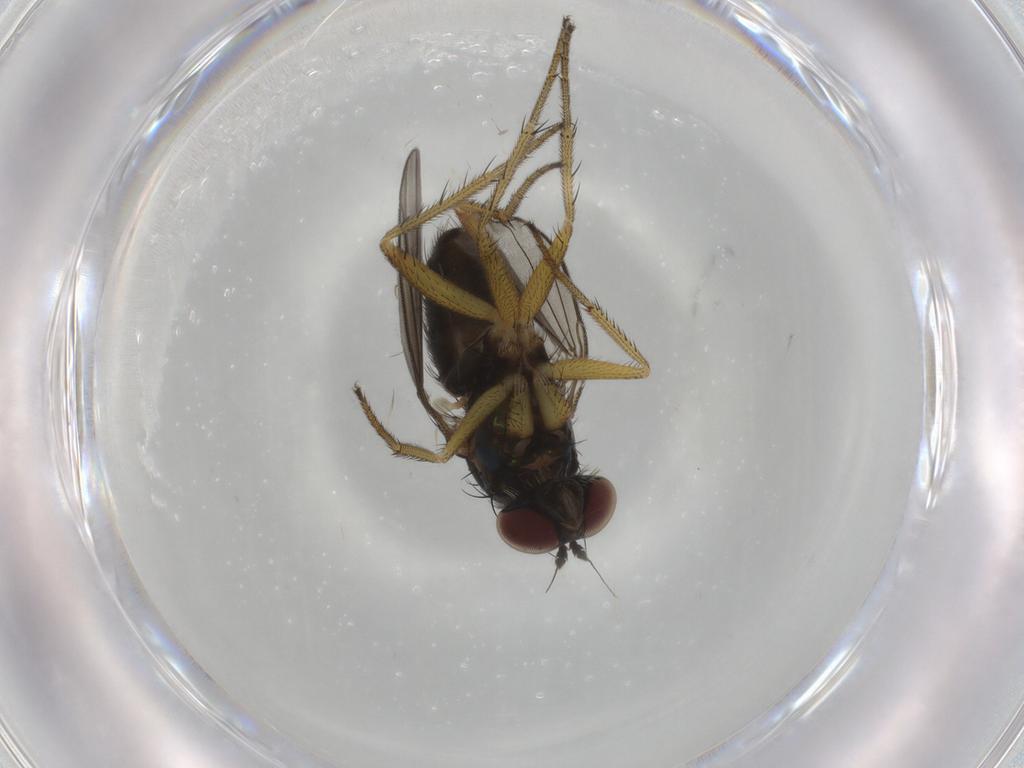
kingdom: Animalia
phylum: Arthropoda
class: Insecta
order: Diptera
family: Dolichopodidae
